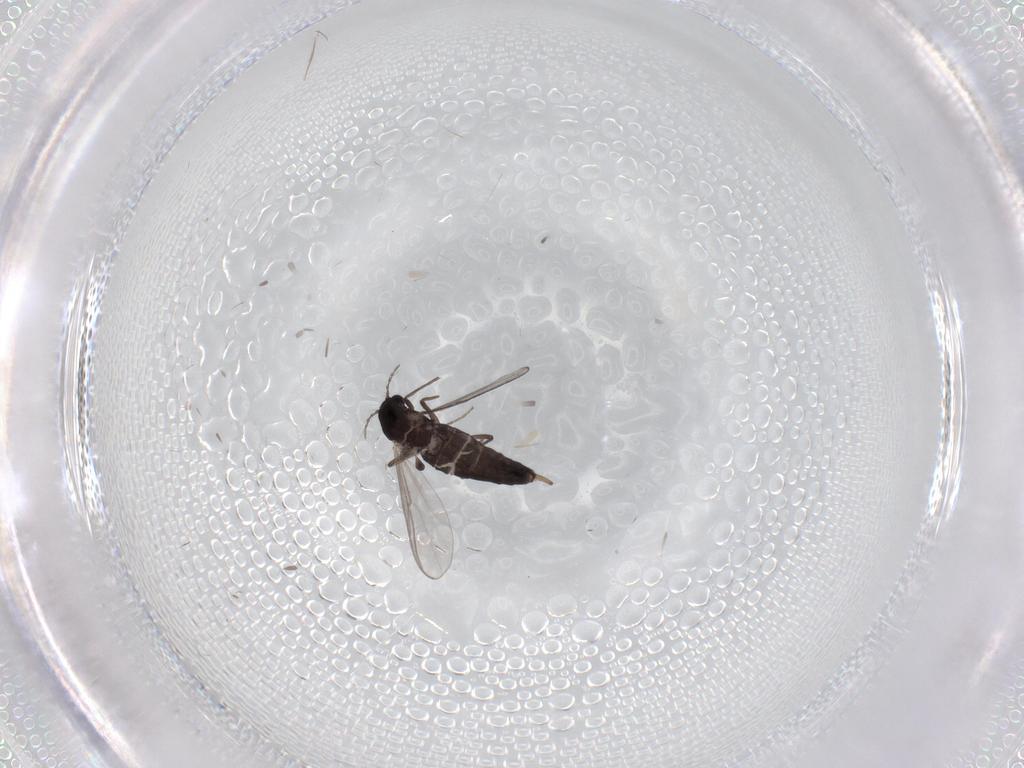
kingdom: Animalia
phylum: Arthropoda
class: Insecta
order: Diptera
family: Chironomidae
